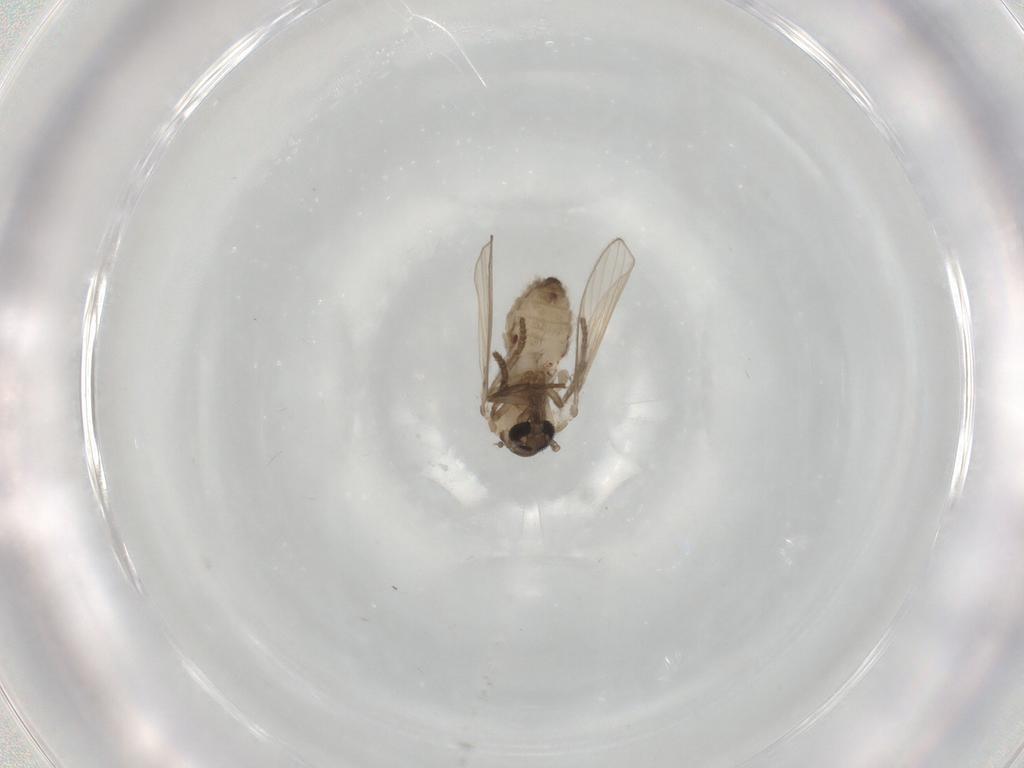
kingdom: Animalia
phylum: Arthropoda
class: Insecta
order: Diptera
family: Psychodidae
